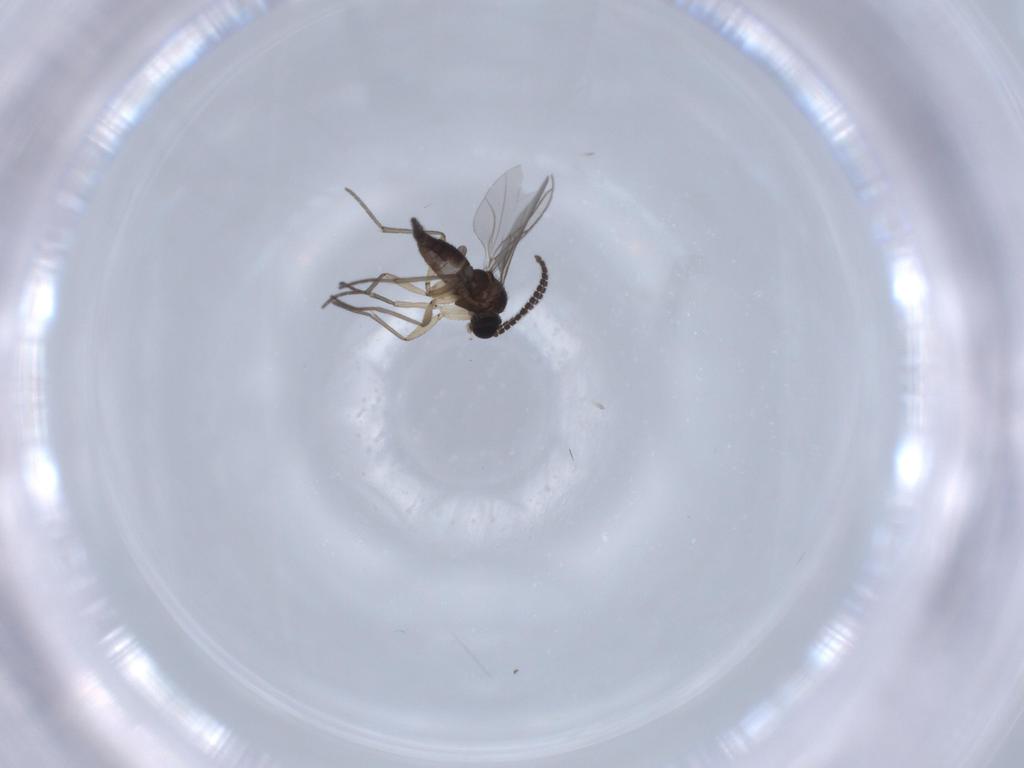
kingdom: Animalia
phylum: Arthropoda
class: Insecta
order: Diptera
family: Sciaridae
